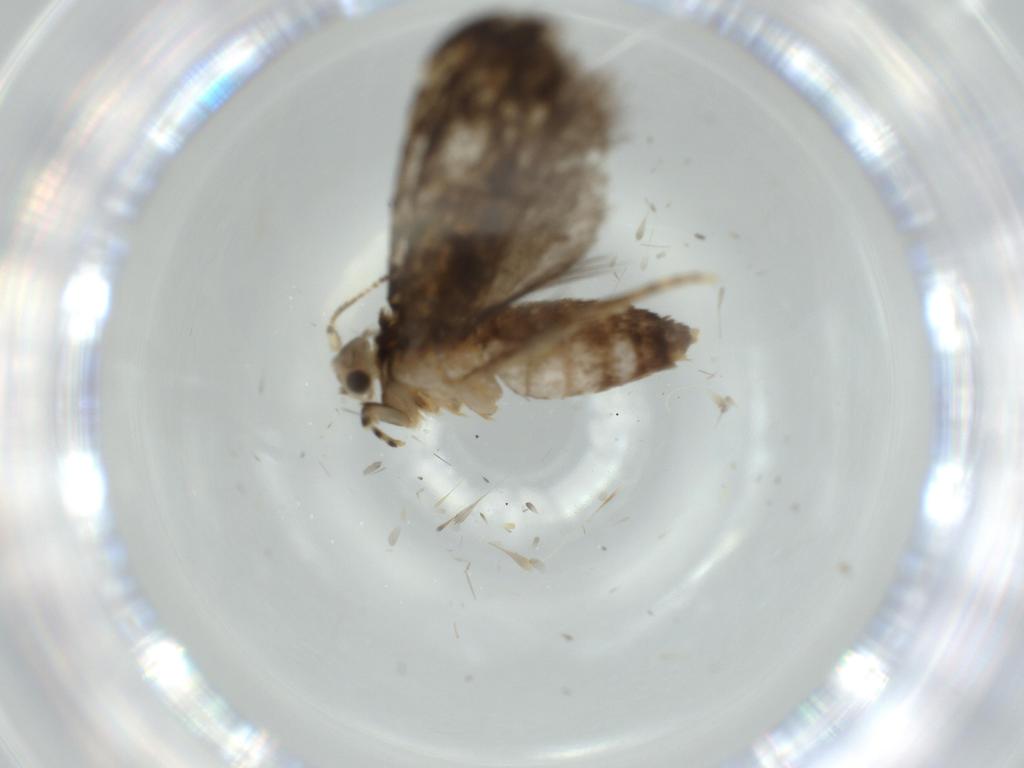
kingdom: Animalia
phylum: Arthropoda
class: Insecta
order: Lepidoptera
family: Tineidae
